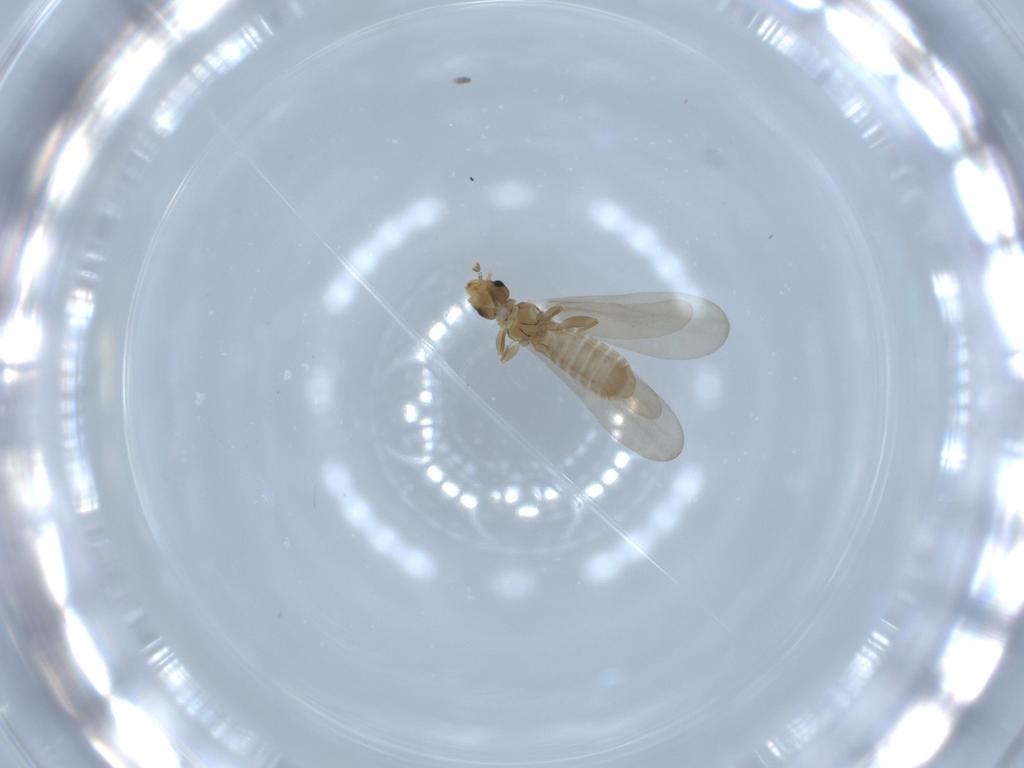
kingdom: Animalia
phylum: Arthropoda
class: Insecta
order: Psocodea
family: Liposcelididae
